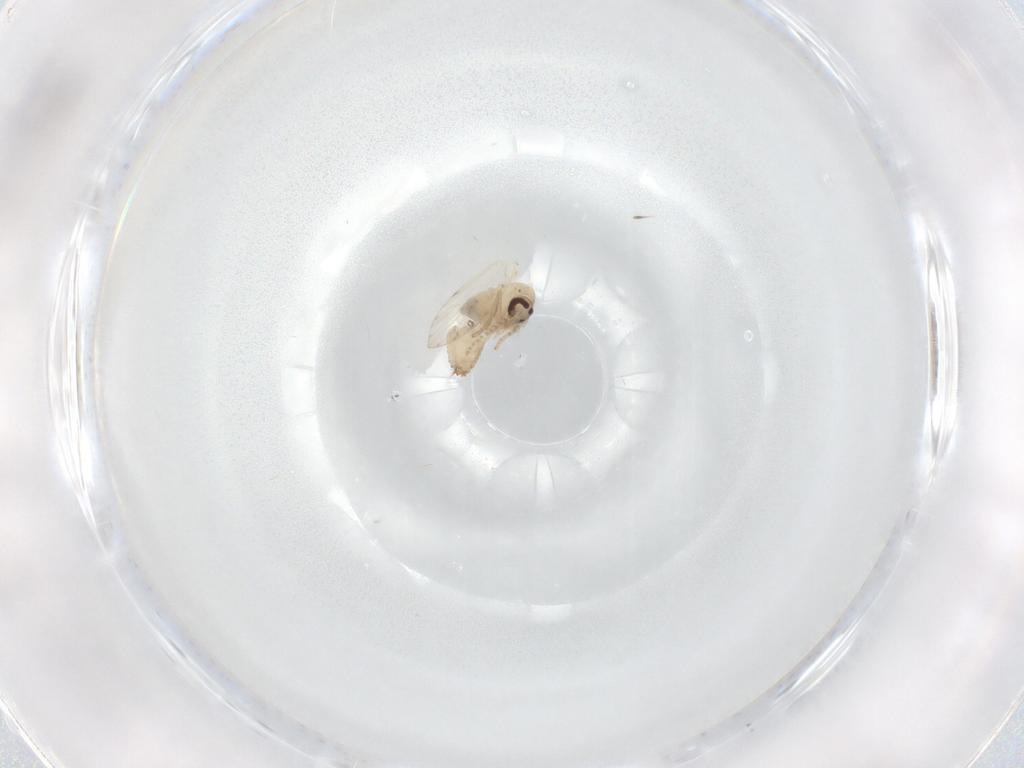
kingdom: Animalia
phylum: Arthropoda
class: Insecta
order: Diptera
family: Psychodidae
